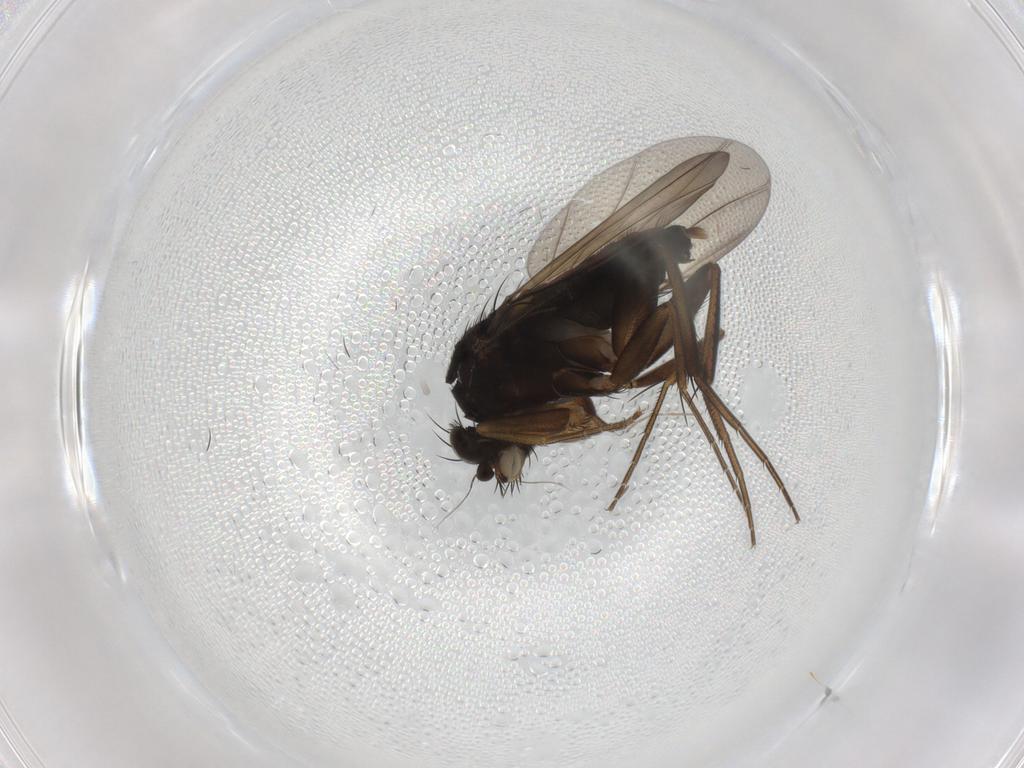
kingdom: Animalia
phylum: Arthropoda
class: Insecta
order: Diptera
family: Phoridae
